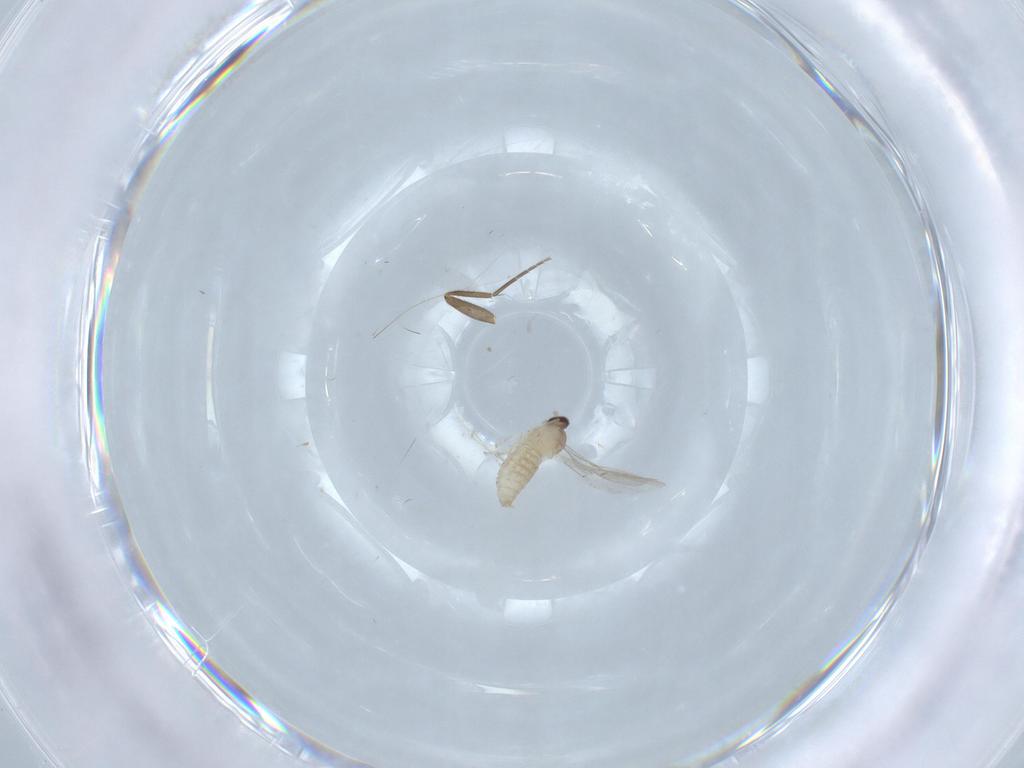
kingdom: Animalia
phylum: Arthropoda
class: Insecta
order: Diptera
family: Cecidomyiidae
